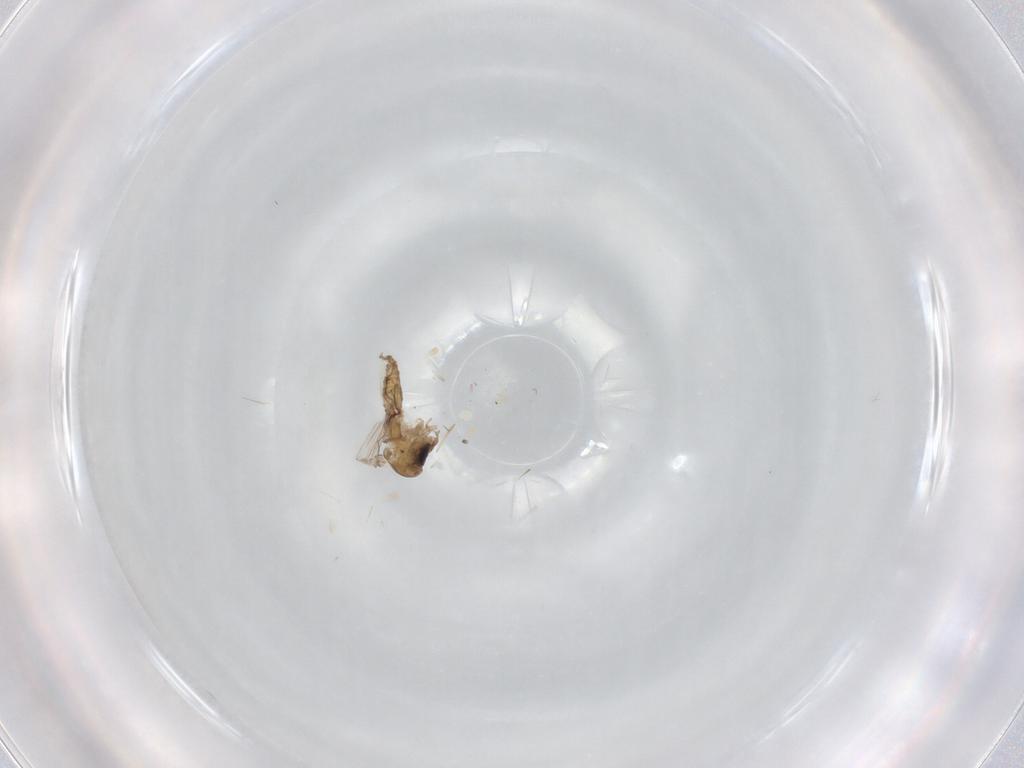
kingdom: Animalia
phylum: Arthropoda
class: Insecta
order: Diptera
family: Psychodidae
